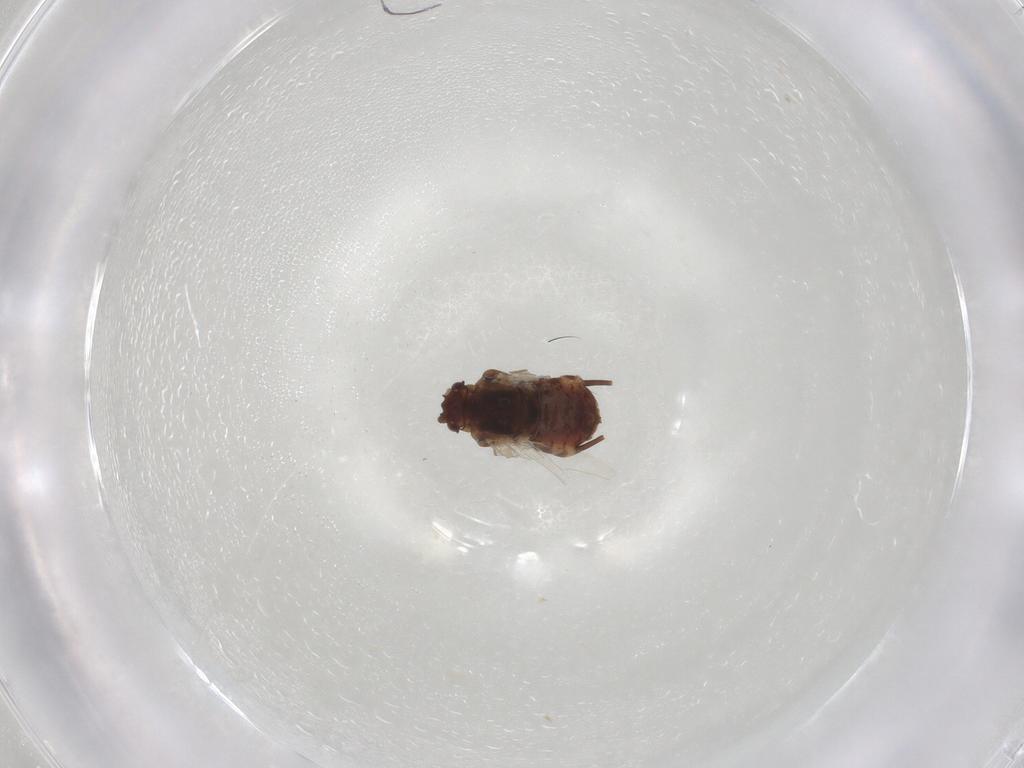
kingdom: Animalia
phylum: Arthropoda
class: Insecta
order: Hemiptera
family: Aphididae
